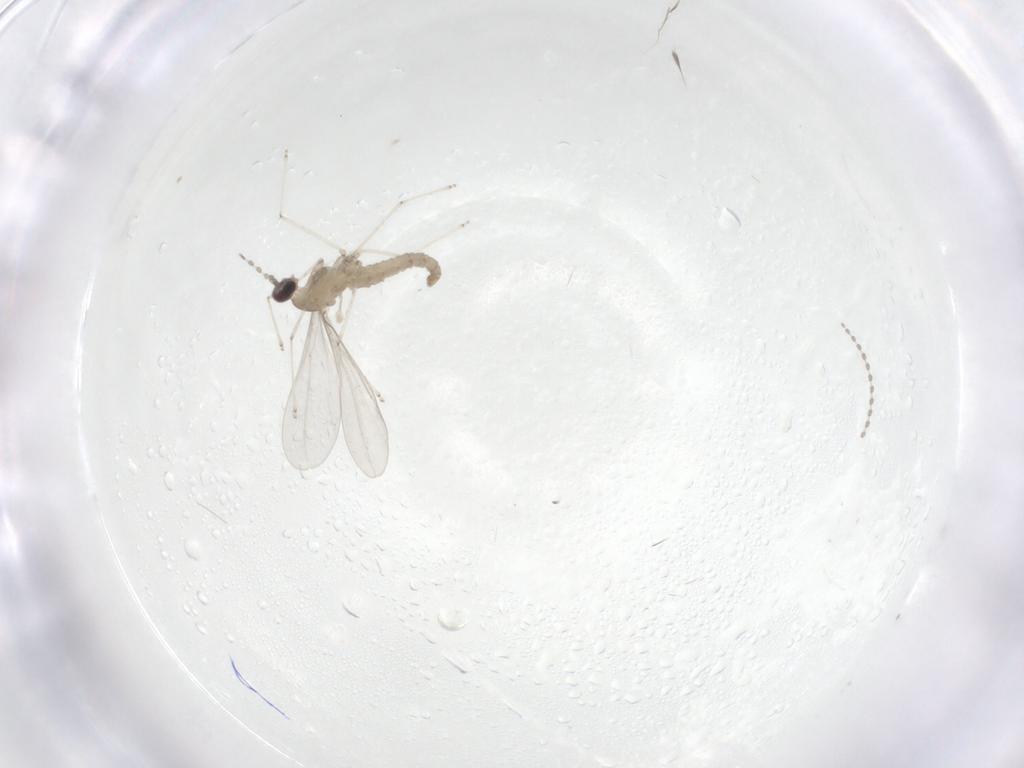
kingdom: Animalia
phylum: Arthropoda
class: Insecta
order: Diptera
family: Cecidomyiidae
